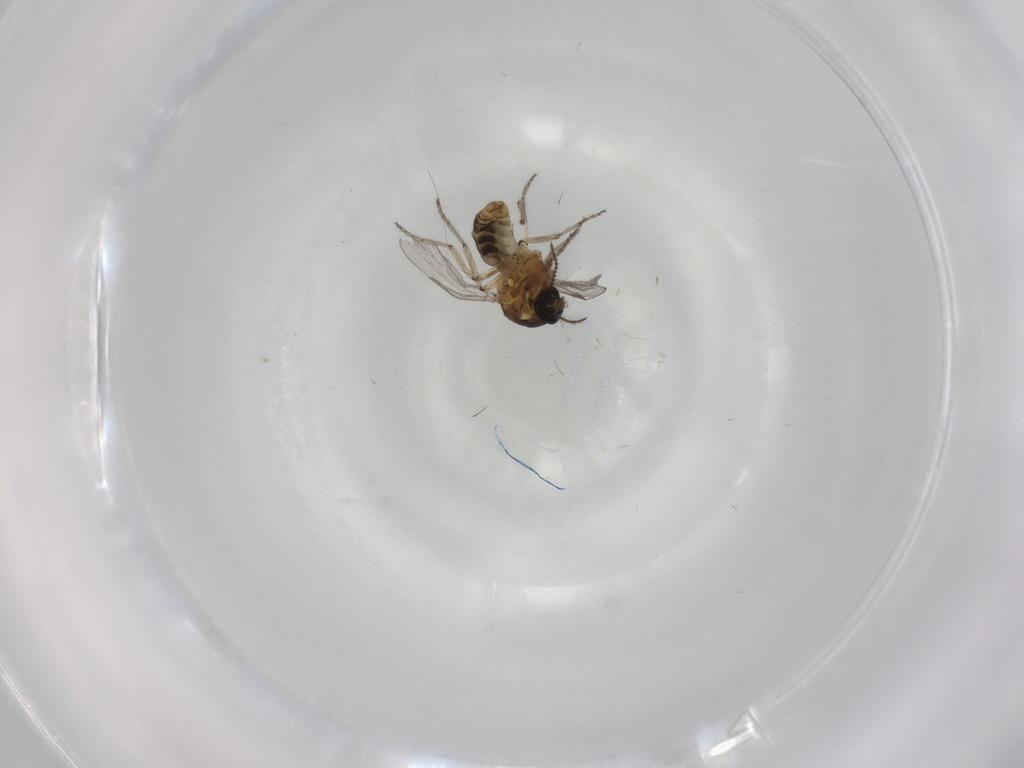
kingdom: Animalia
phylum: Arthropoda
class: Insecta
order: Diptera
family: Ceratopogonidae
